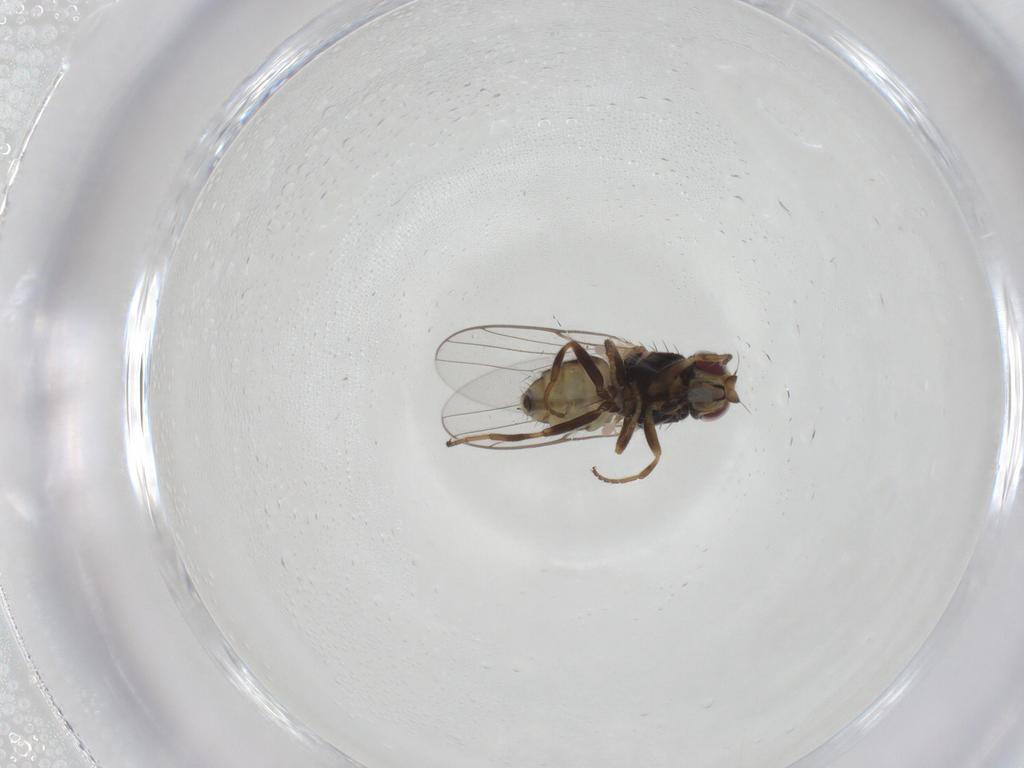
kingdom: Animalia
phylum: Arthropoda
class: Insecta
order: Diptera
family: Chloropidae
